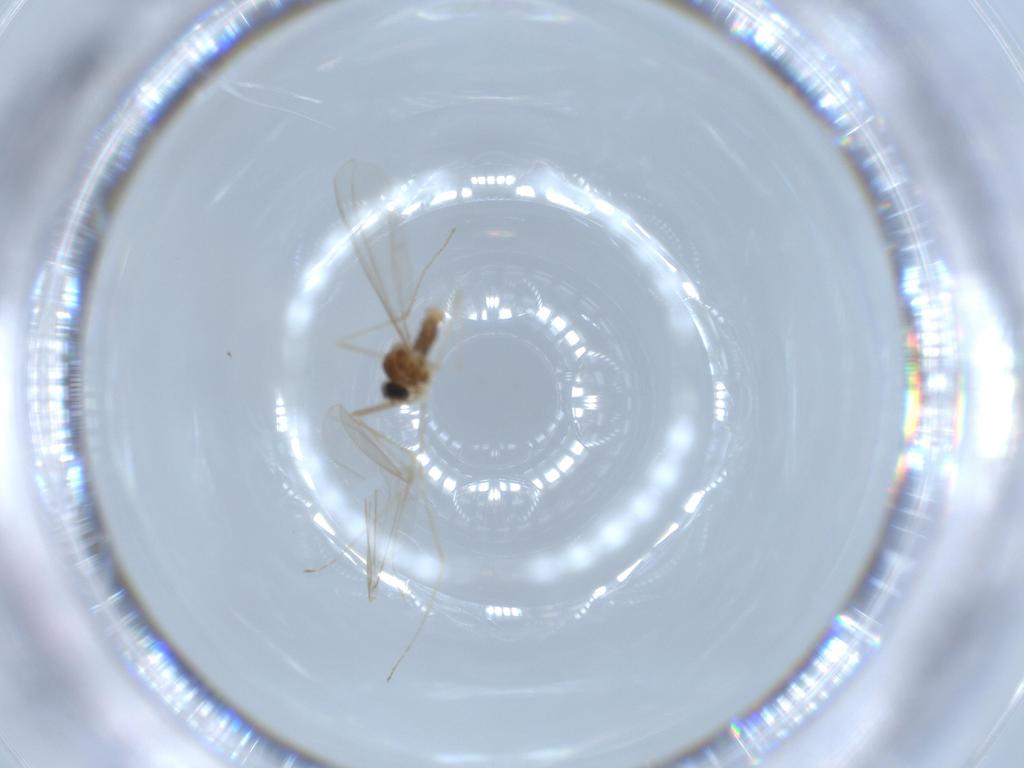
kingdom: Animalia
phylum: Arthropoda
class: Insecta
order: Diptera
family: Cecidomyiidae
